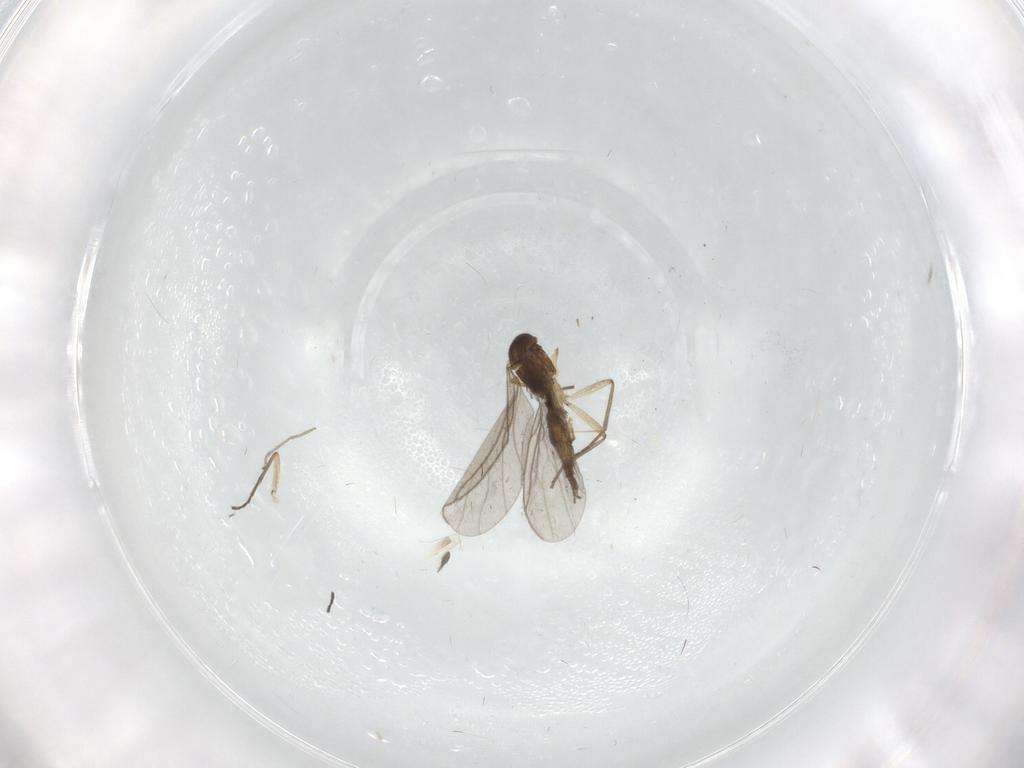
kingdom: Animalia
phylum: Arthropoda
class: Insecta
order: Diptera
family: Sciaridae
